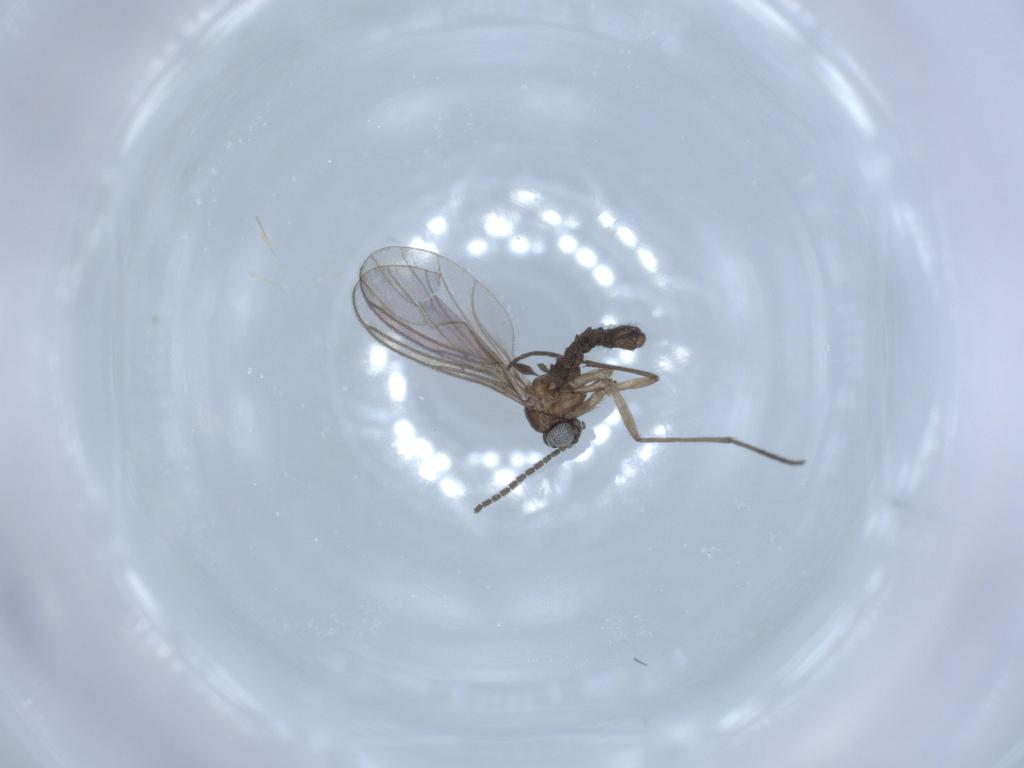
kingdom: Animalia
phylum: Arthropoda
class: Insecta
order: Diptera
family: Sciaridae
